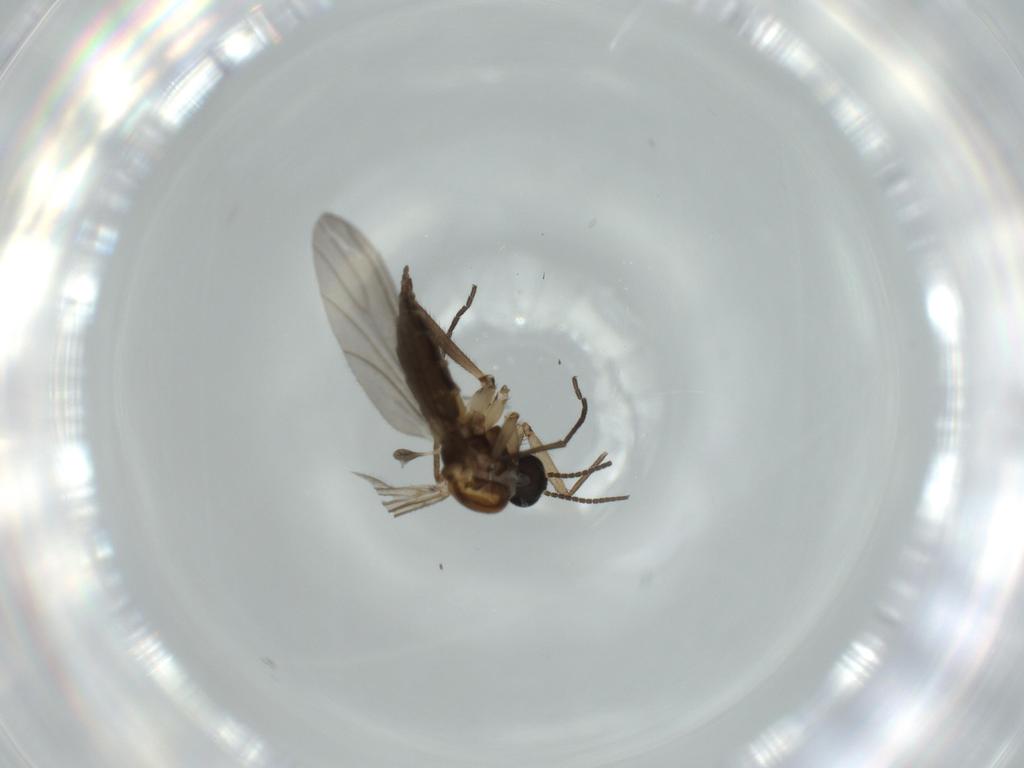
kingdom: Animalia
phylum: Arthropoda
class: Insecta
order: Diptera
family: Sciaridae
